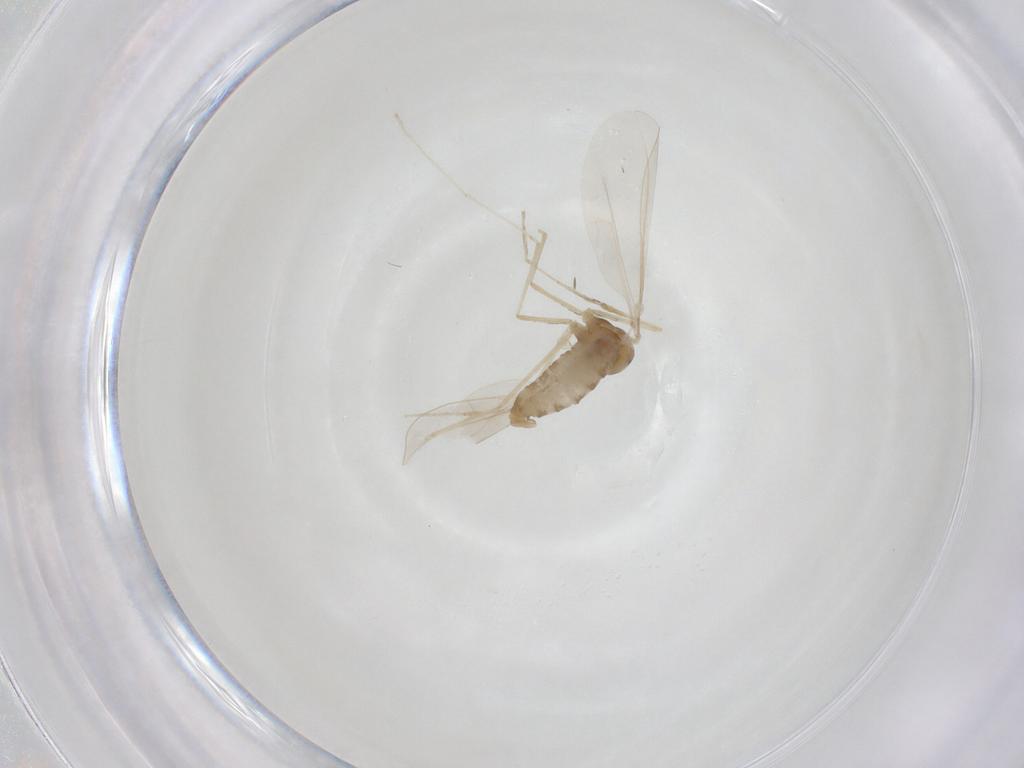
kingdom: Animalia
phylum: Arthropoda
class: Insecta
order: Diptera
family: Cecidomyiidae
